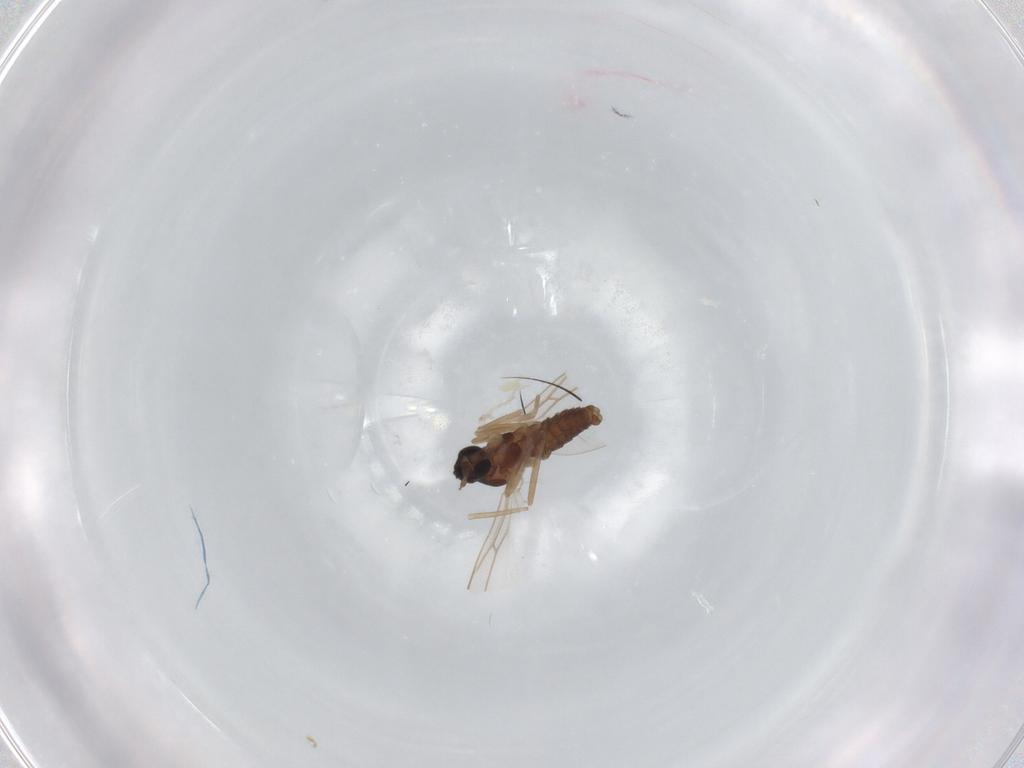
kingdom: Animalia
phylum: Arthropoda
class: Insecta
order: Diptera
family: Cecidomyiidae
